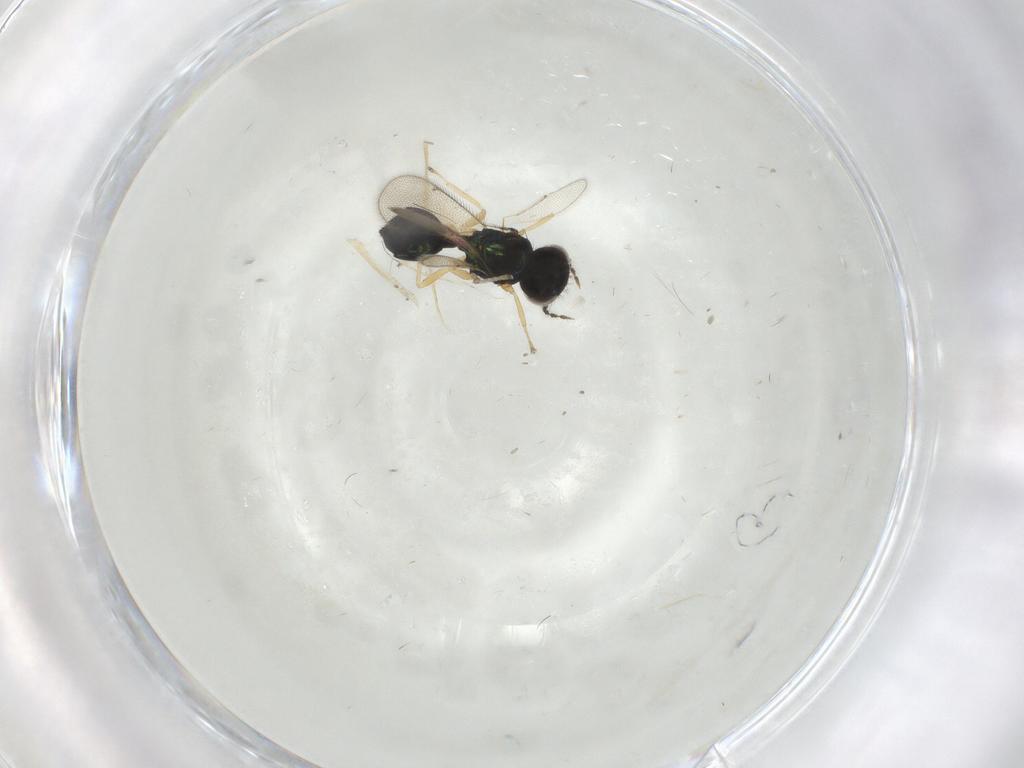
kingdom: Animalia
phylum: Arthropoda
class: Insecta
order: Hymenoptera
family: Eulophidae
